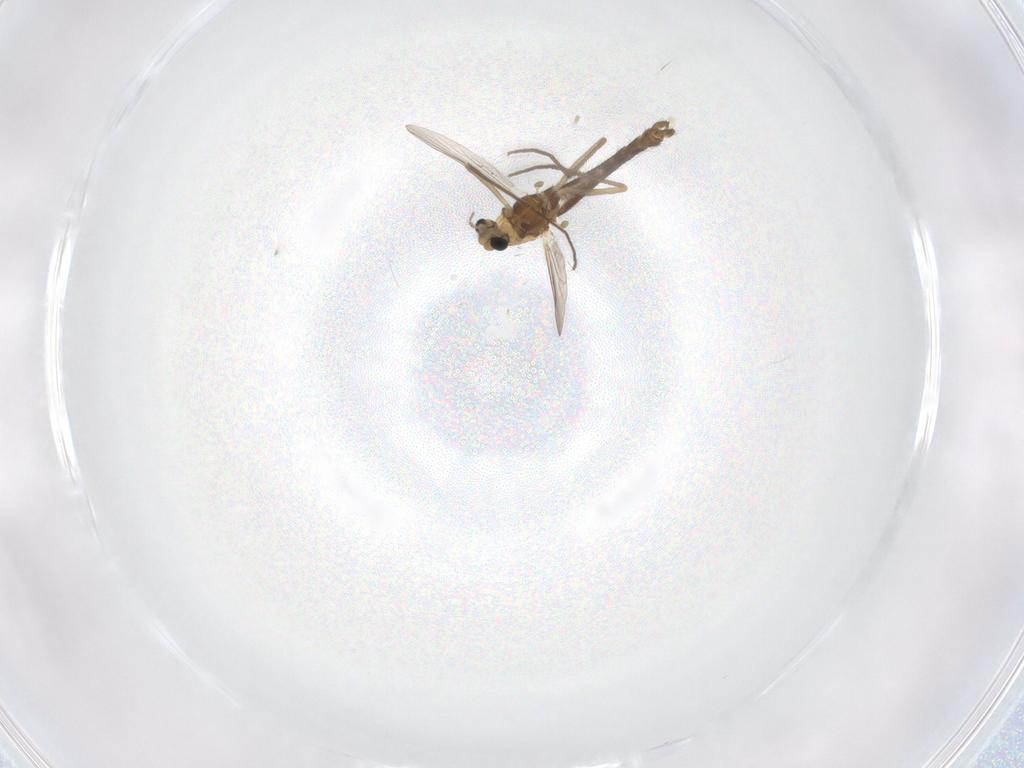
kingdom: Animalia
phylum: Arthropoda
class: Insecta
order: Diptera
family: Chironomidae
